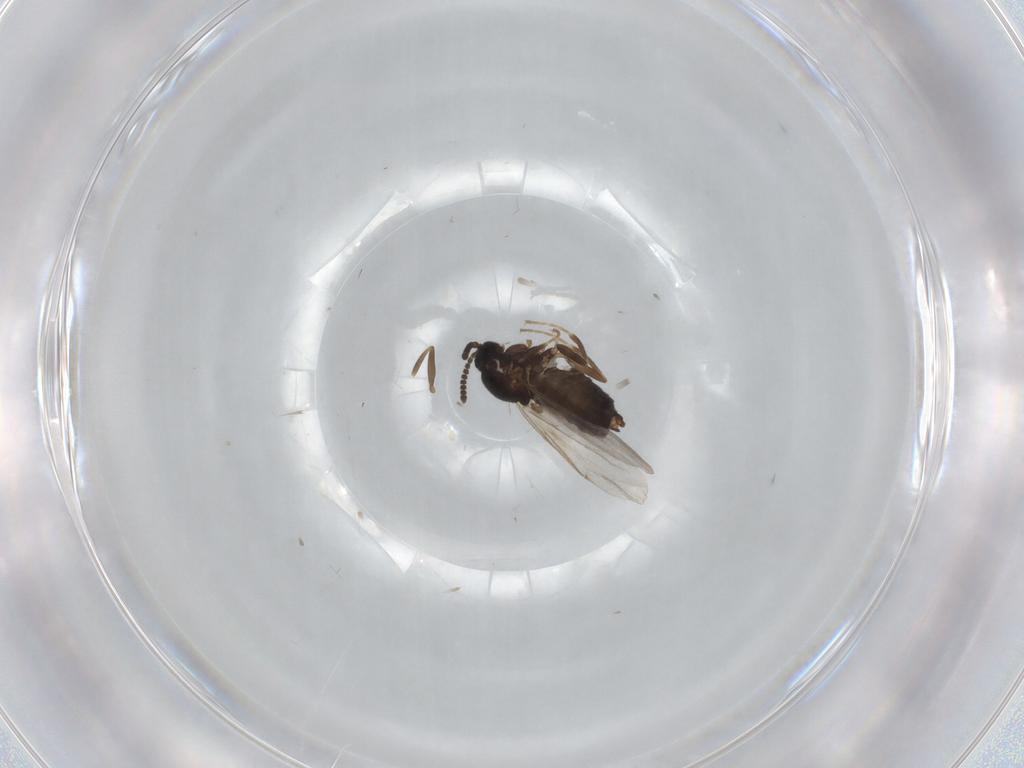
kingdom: Animalia
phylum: Arthropoda
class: Insecta
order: Diptera
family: Scatopsidae
